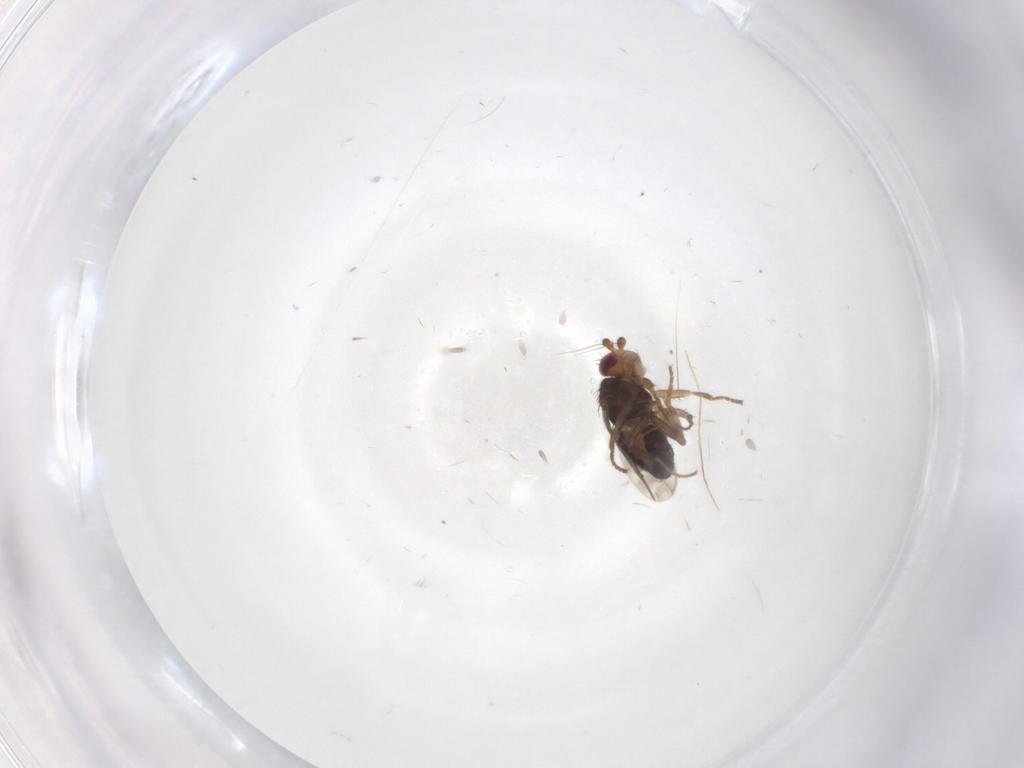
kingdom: Animalia
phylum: Arthropoda
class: Insecta
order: Diptera
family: Sphaeroceridae
